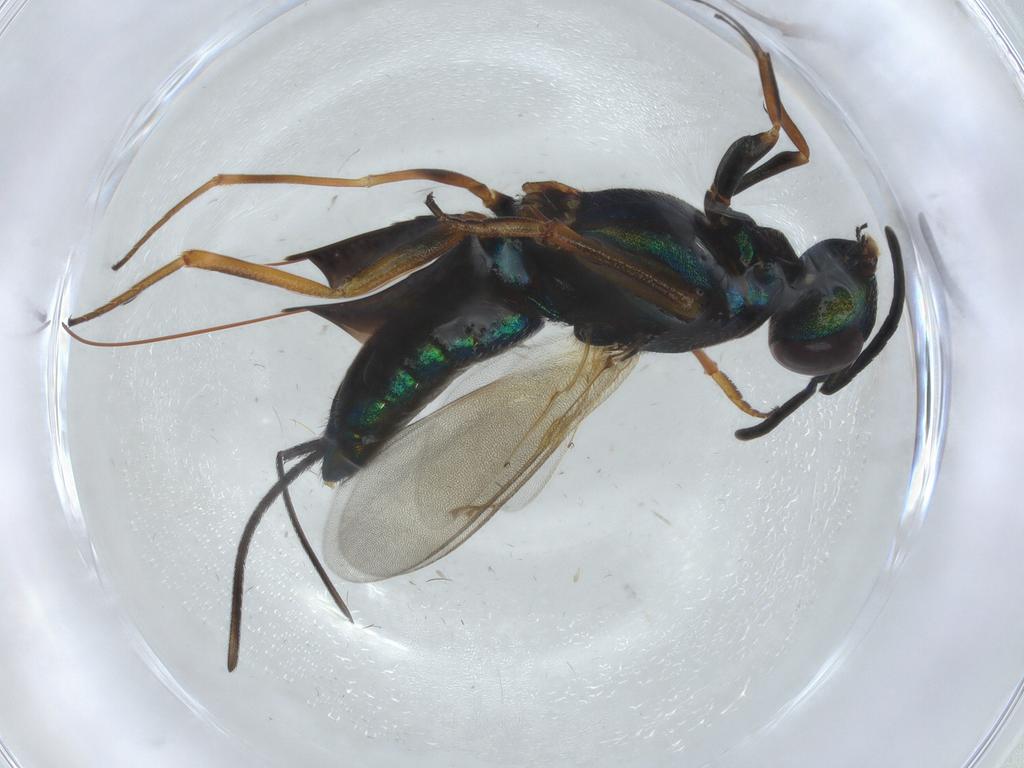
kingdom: Animalia
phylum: Arthropoda
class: Insecta
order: Hymenoptera
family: Eupelmidae
